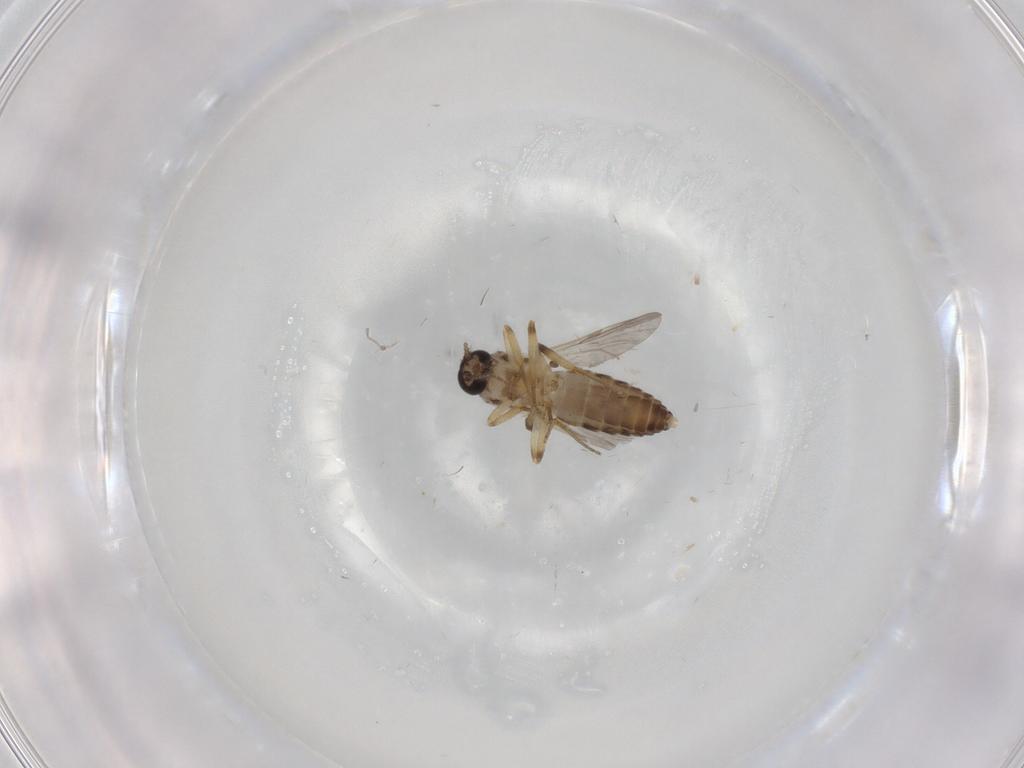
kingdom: Animalia
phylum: Arthropoda
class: Insecta
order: Diptera
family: Ceratopogonidae
